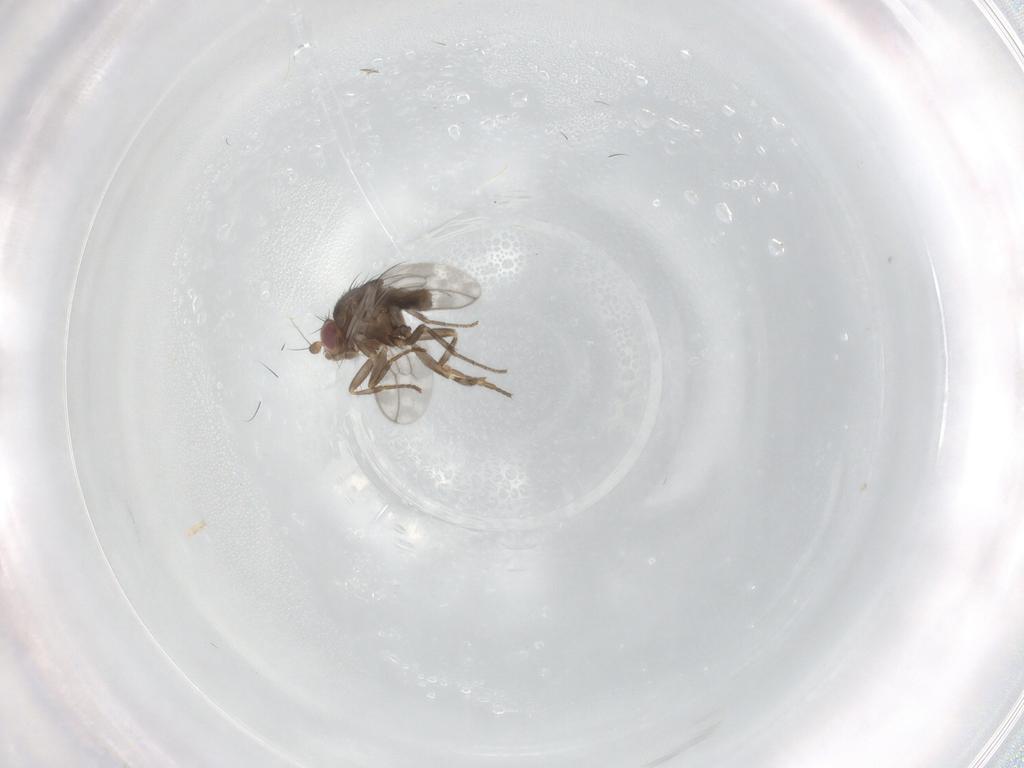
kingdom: Animalia
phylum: Arthropoda
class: Insecta
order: Diptera
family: Sphaeroceridae
